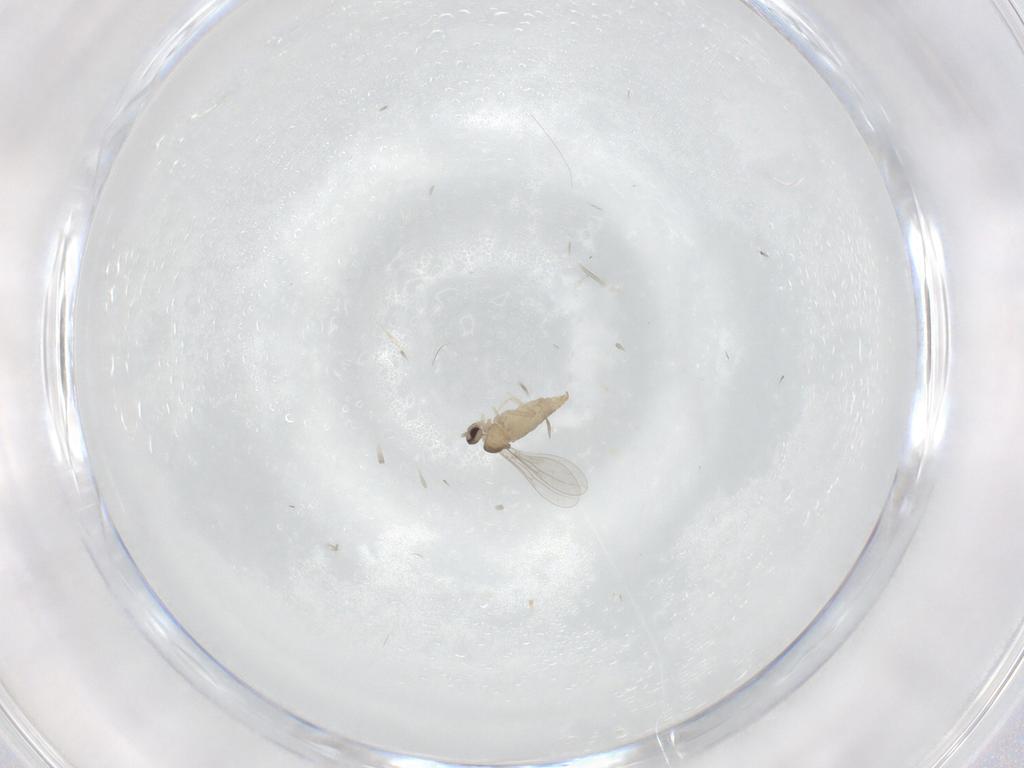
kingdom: Animalia
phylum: Arthropoda
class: Insecta
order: Diptera
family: Cecidomyiidae
